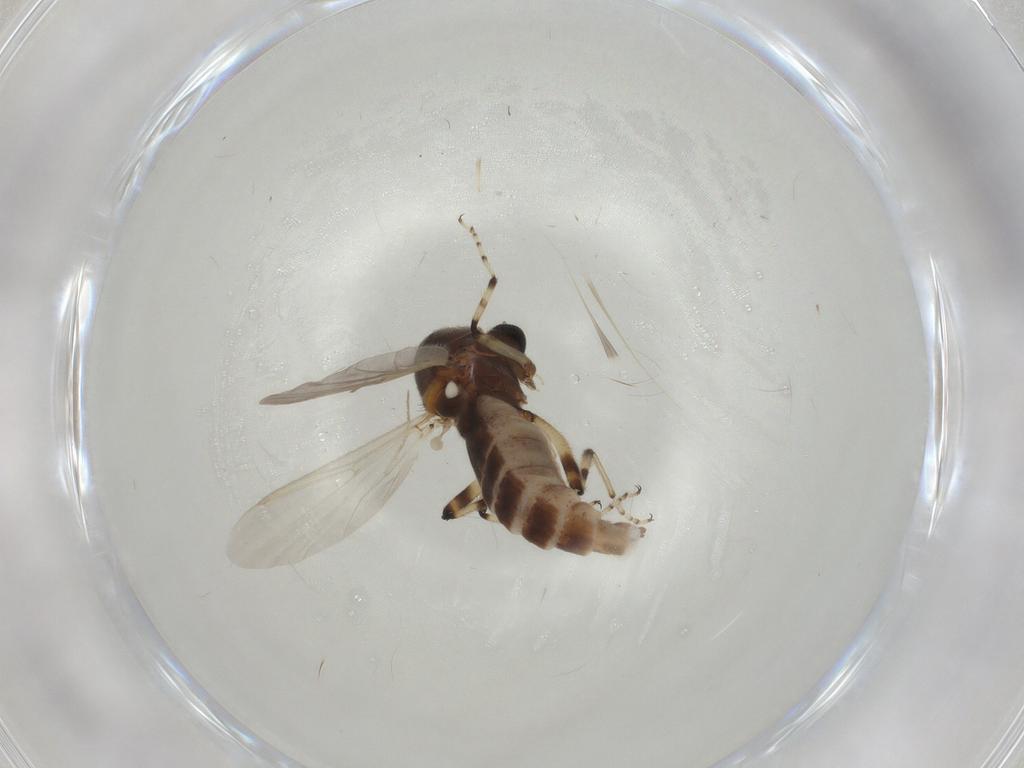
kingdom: Animalia
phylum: Arthropoda
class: Insecta
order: Diptera
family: Ceratopogonidae
